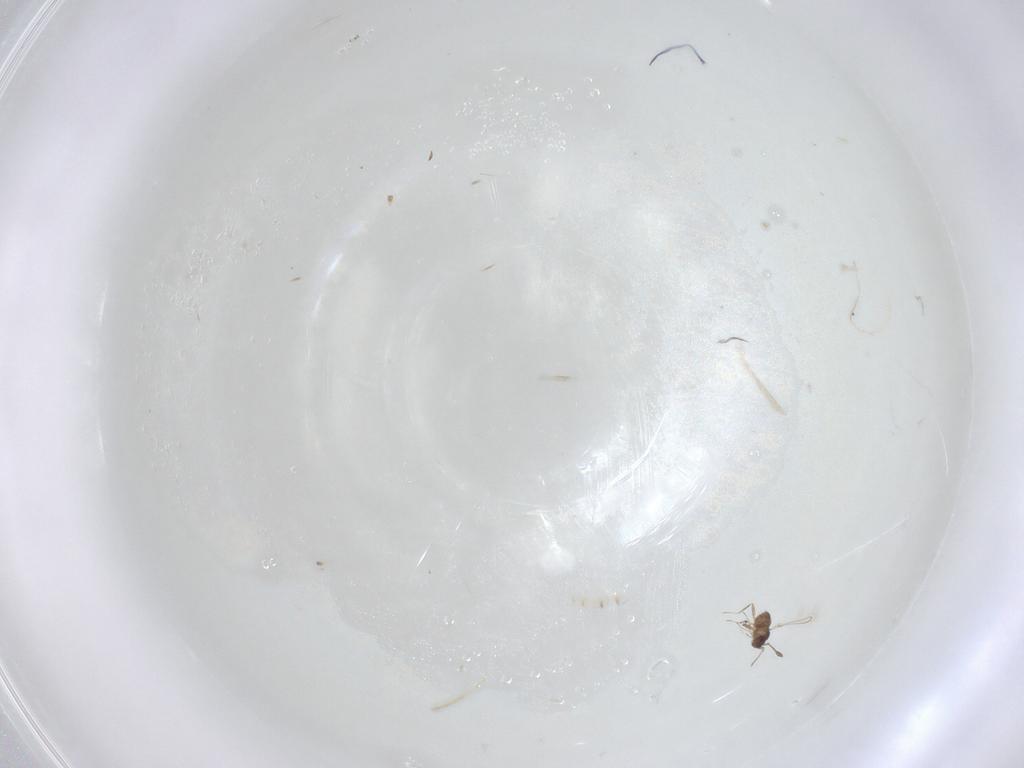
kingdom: Animalia
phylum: Arthropoda
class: Insecta
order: Hymenoptera
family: Mymaridae
